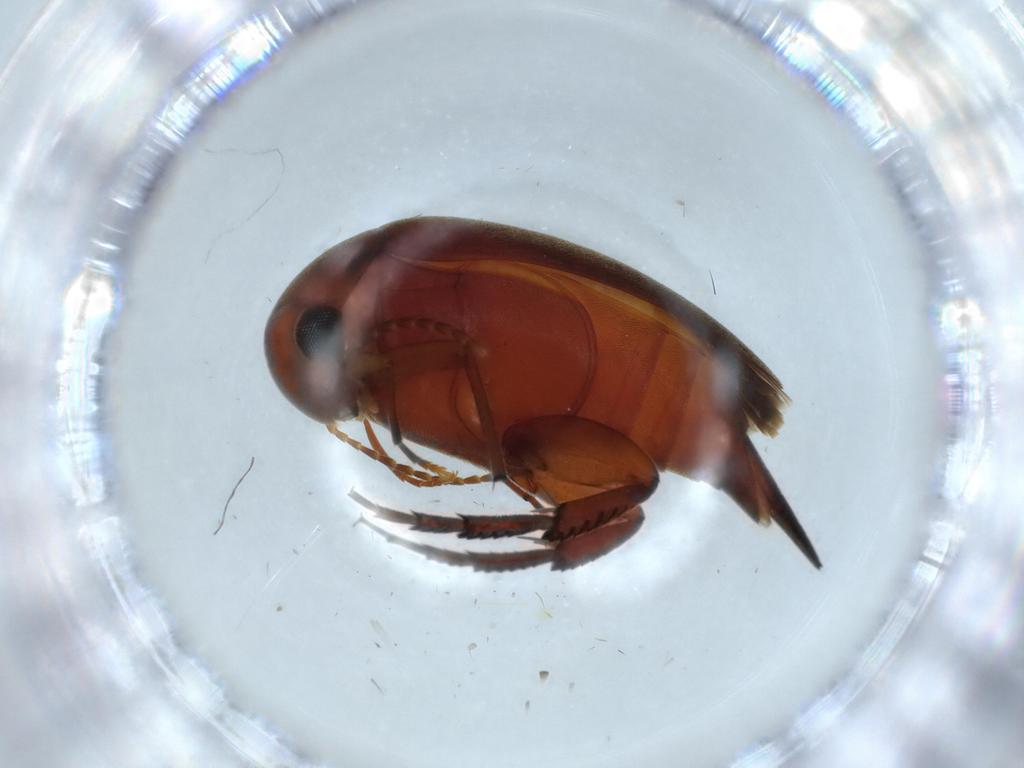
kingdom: Animalia
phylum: Arthropoda
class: Insecta
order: Coleoptera
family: Mordellidae
